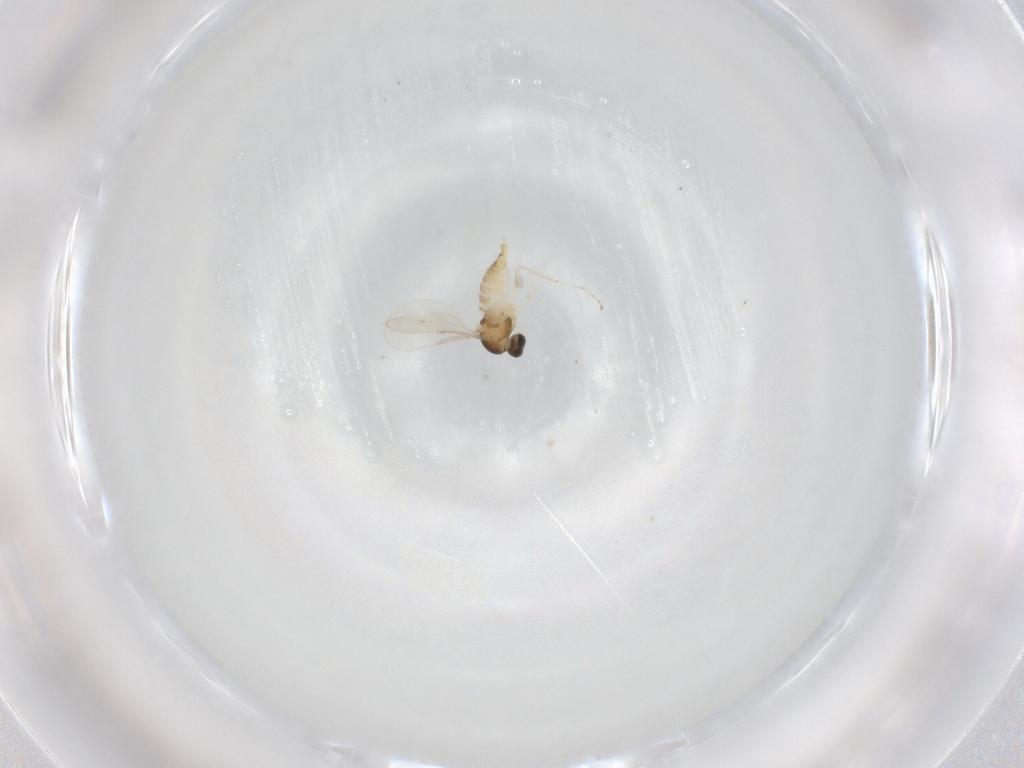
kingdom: Animalia
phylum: Arthropoda
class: Insecta
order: Diptera
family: Cecidomyiidae
